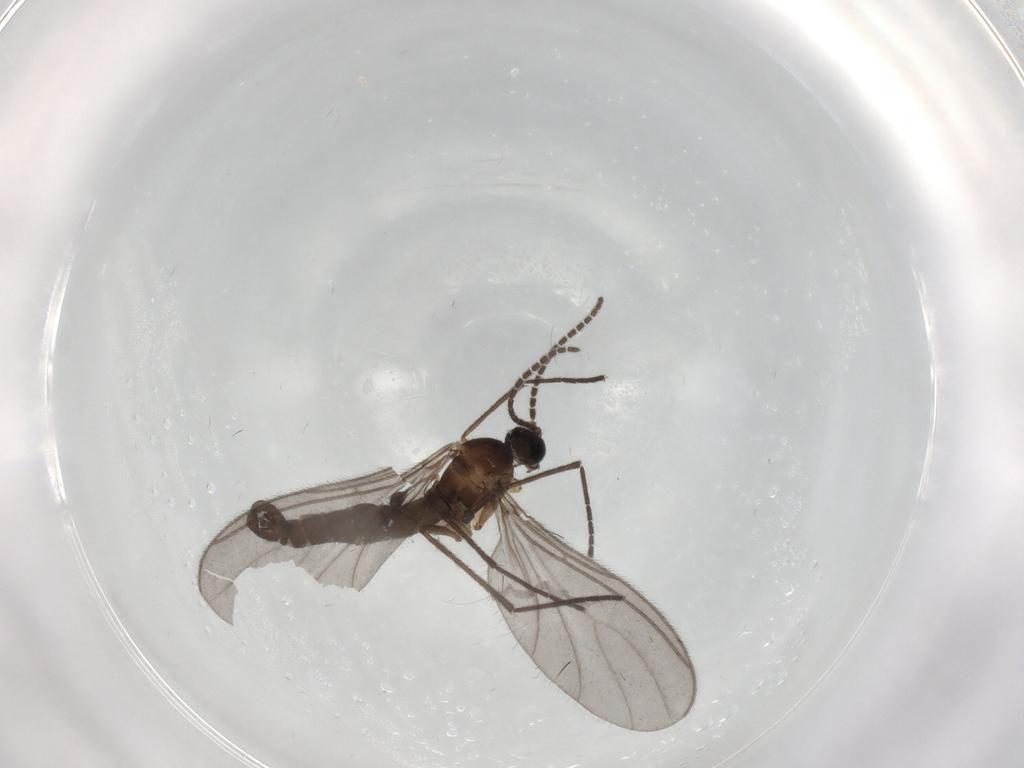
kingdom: Animalia
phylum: Arthropoda
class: Insecta
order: Diptera
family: Sciaridae
